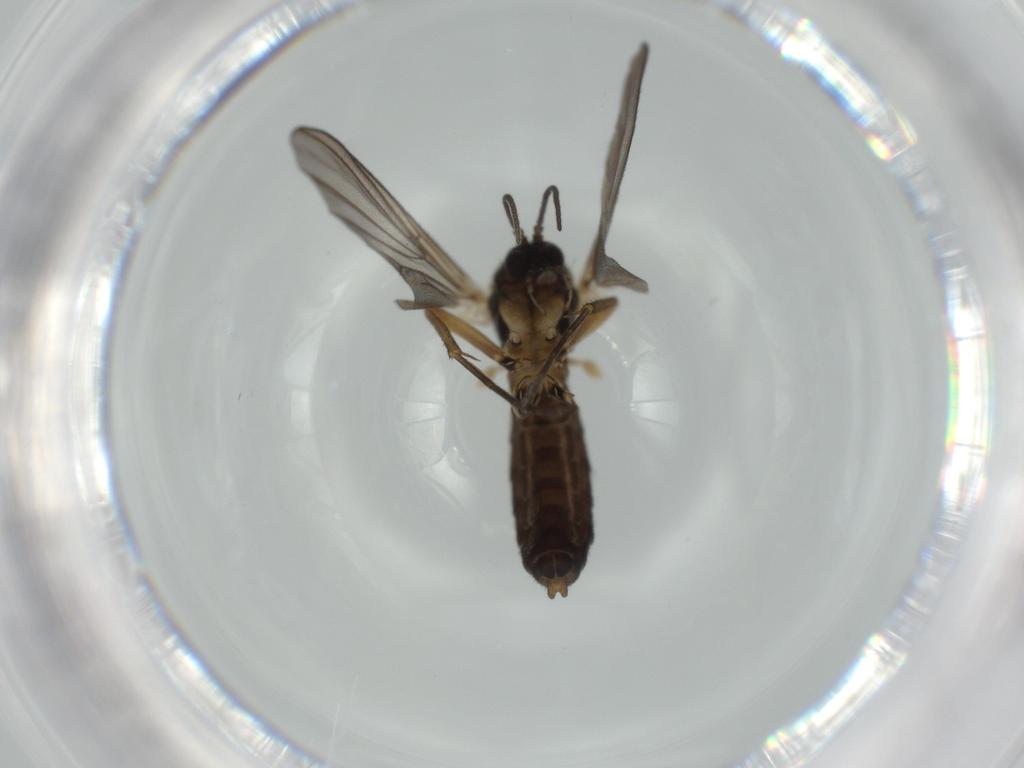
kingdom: Animalia
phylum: Arthropoda
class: Insecta
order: Diptera
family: Mycetophilidae
